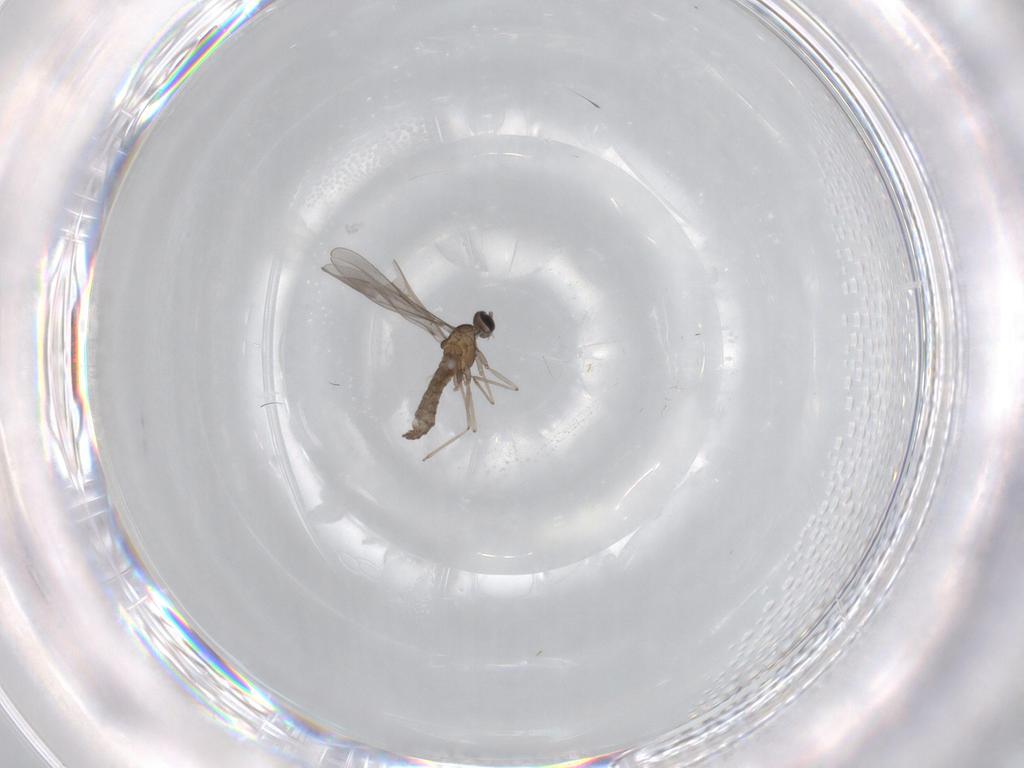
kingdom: Animalia
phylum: Arthropoda
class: Insecta
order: Diptera
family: Cecidomyiidae
